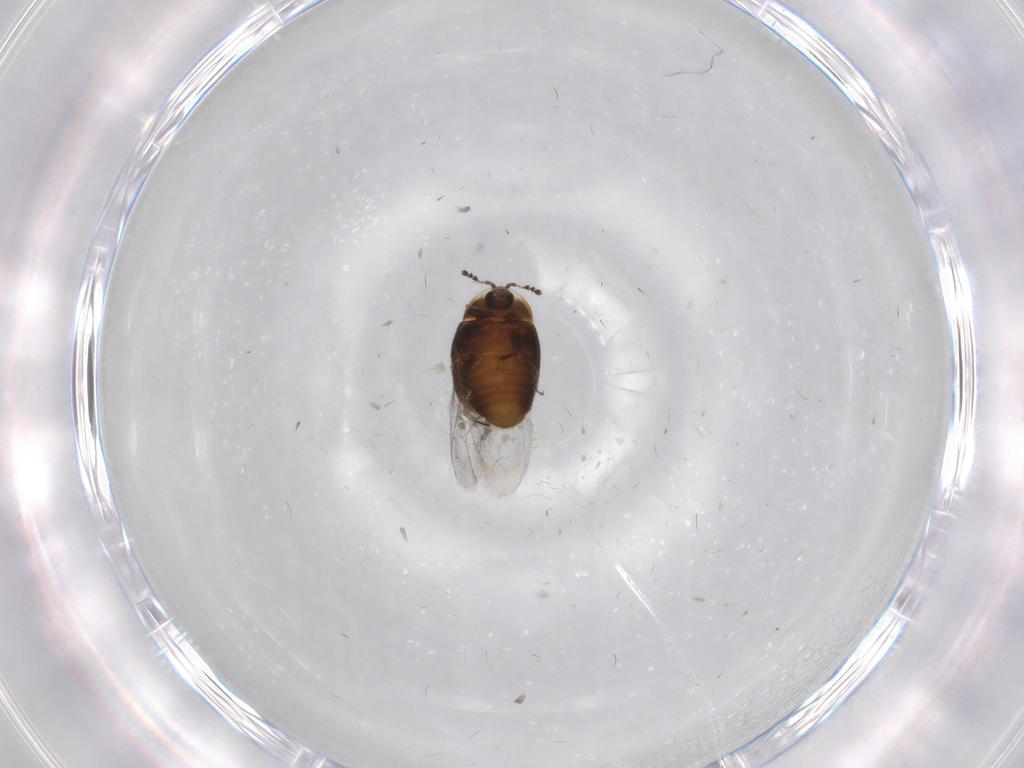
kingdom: Animalia
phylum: Arthropoda
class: Insecta
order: Coleoptera
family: Corylophidae
